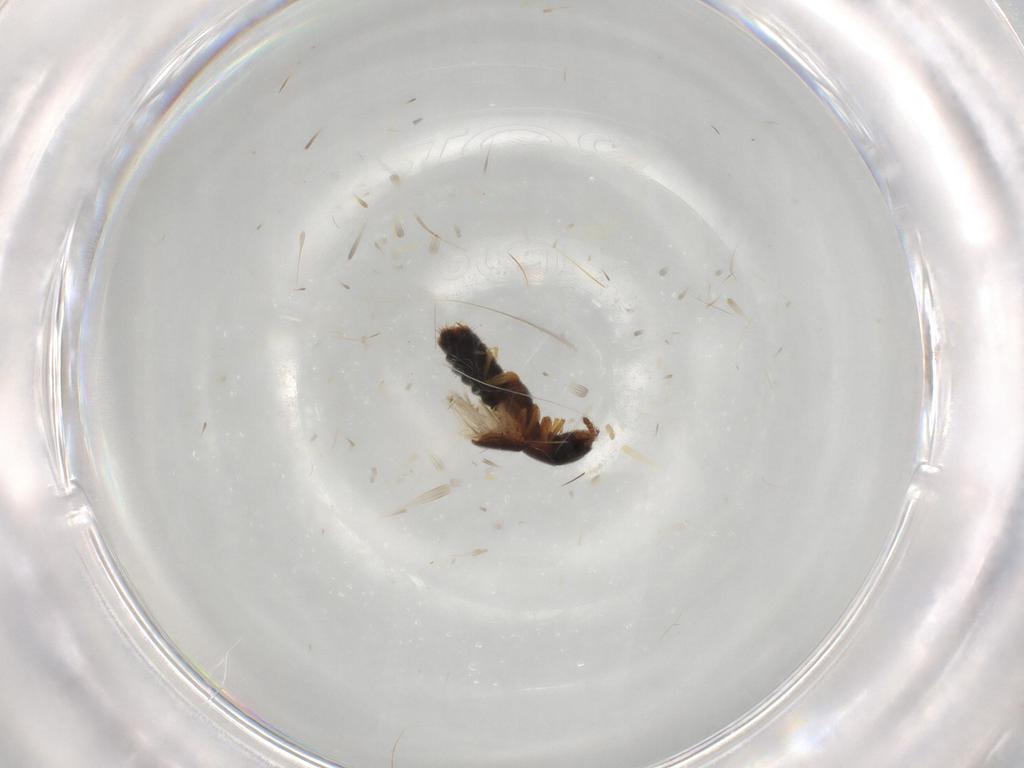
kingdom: Animalia
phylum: Arthropoda
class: Insecta
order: Coleoptera
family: Staphylinidae
